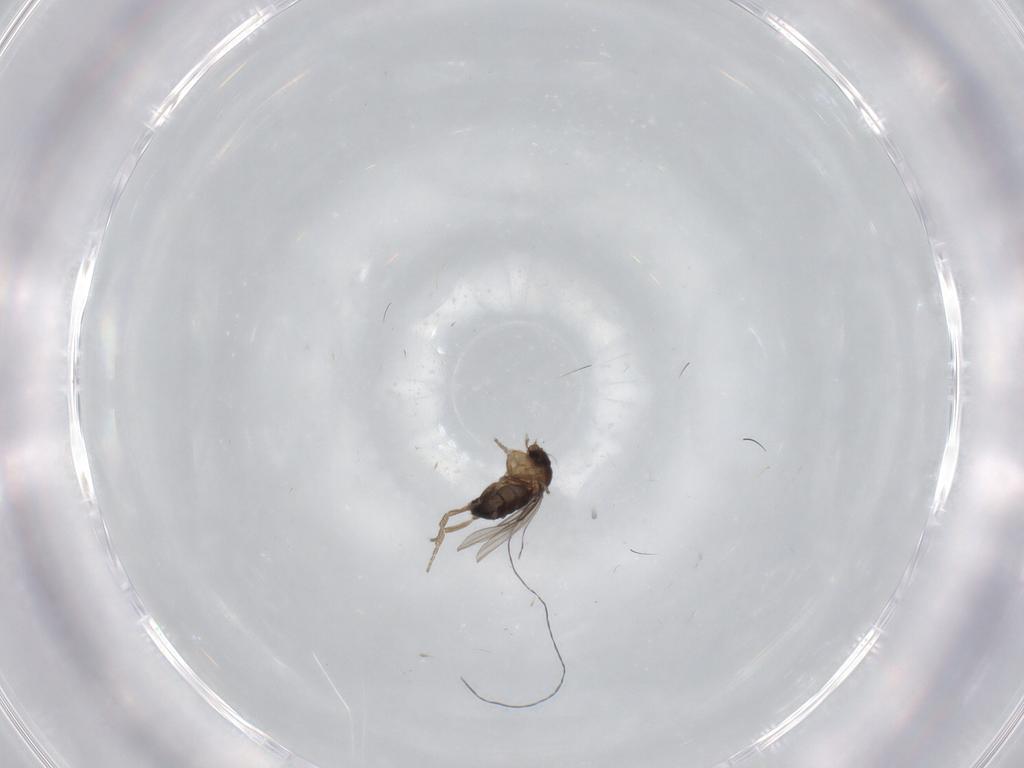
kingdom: Animalia
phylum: Arthropoda
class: Insecta
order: Diptera
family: Phoridae
